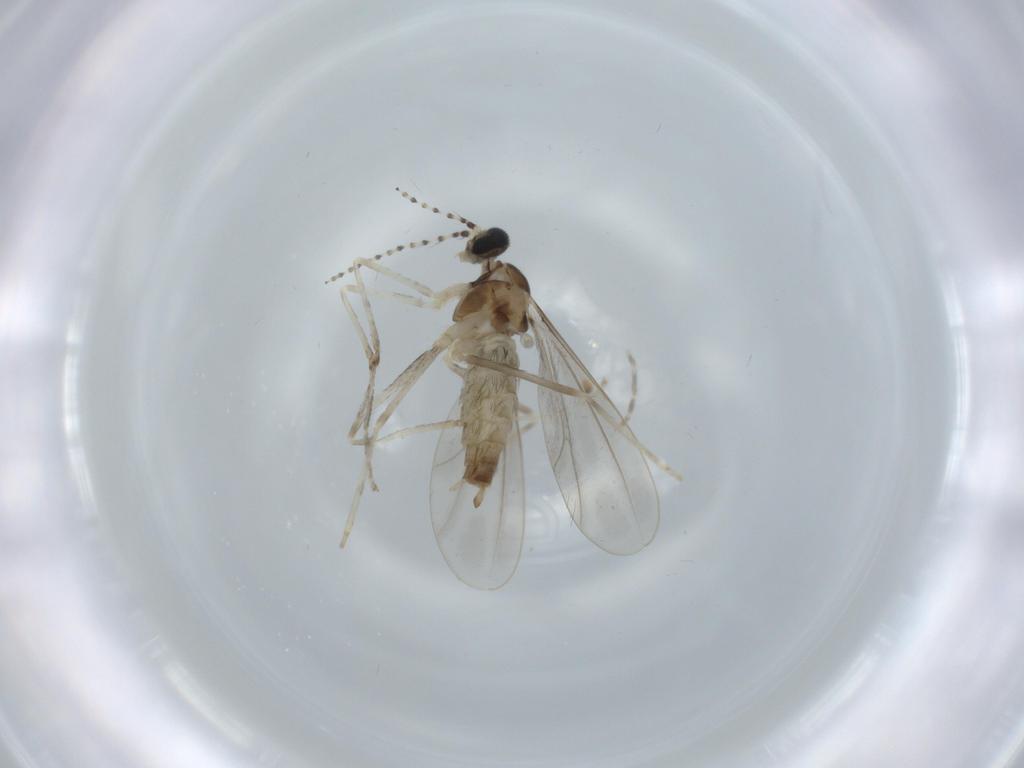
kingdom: Animalia
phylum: Arthropoda
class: Insecta
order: Diptera
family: Cecidomyiidae
